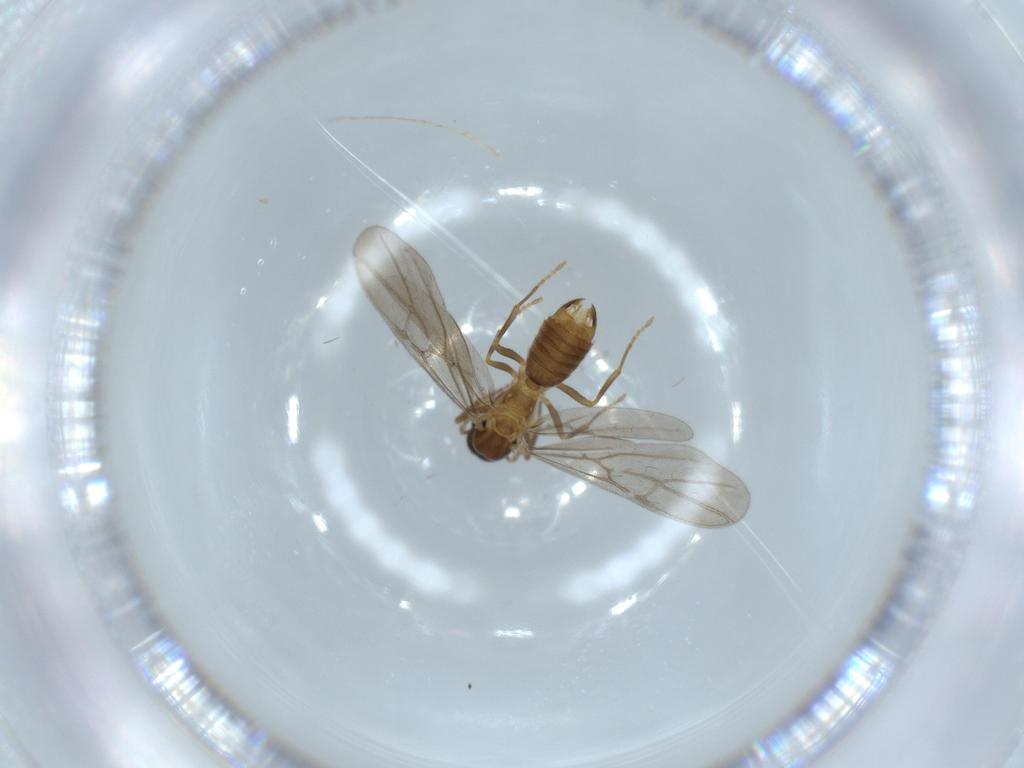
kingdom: Animalia
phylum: Arthropoda
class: Insecta
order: Hymenoptera
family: Formicidae
